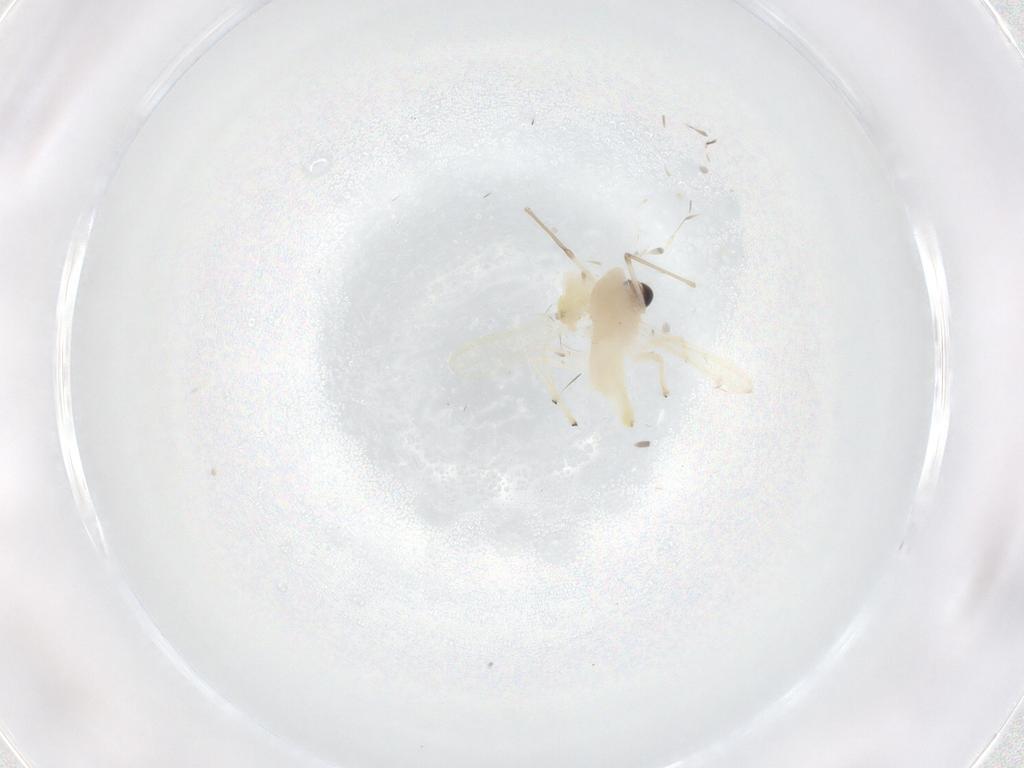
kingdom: Animalia
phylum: Arthropoda
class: Insecta
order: Diptera
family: Chironomidae
